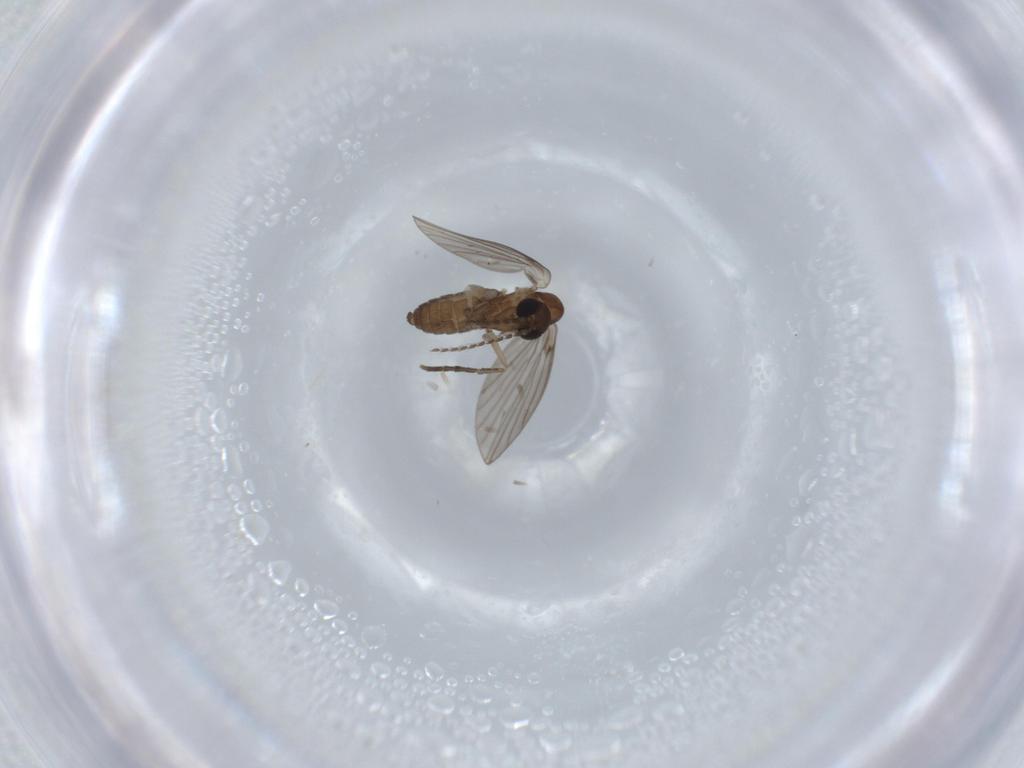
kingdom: Animalia
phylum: Arthropoda
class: Insecta
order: Diptera
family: Psychodidae
